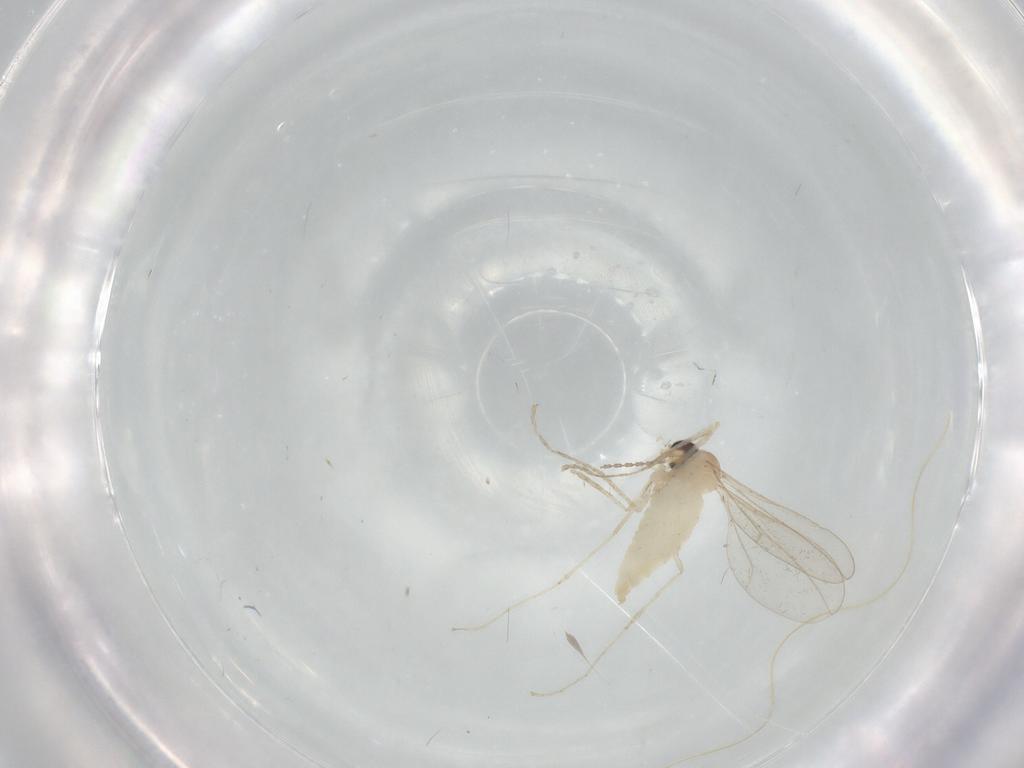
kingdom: Animalia
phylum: Arthropoda
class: Insecta
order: Diptera
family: Cecidomyiidae
